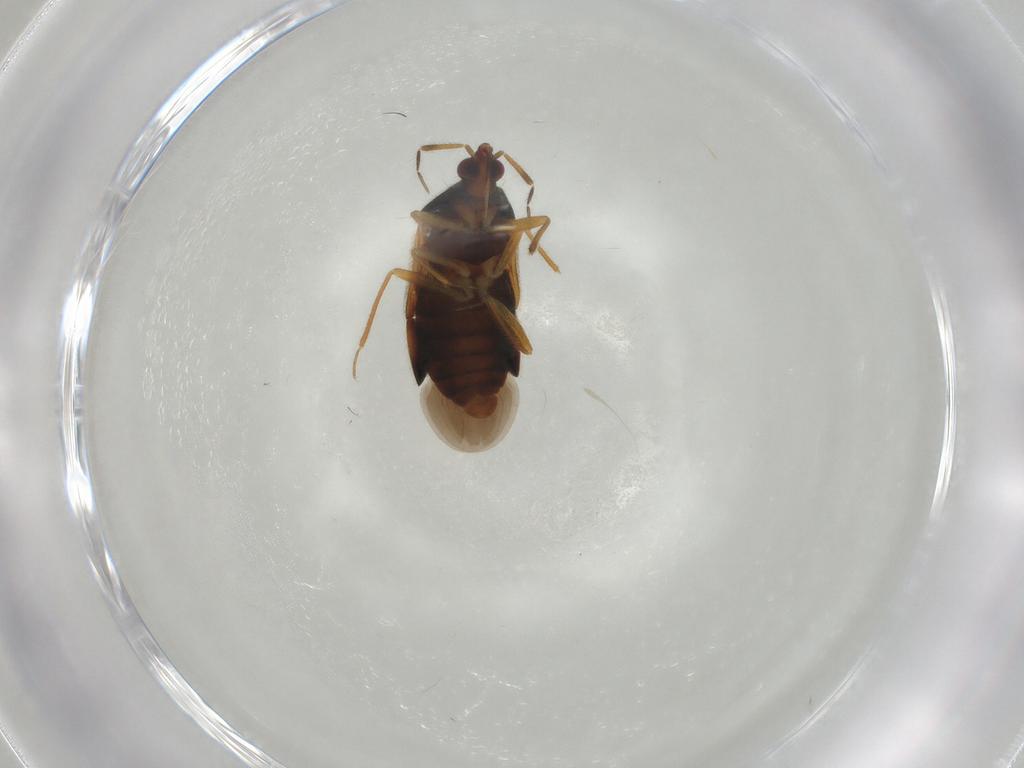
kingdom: Animalia
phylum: Arthropoda
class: Insecta
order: Hemiptera
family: Anthocoridae
